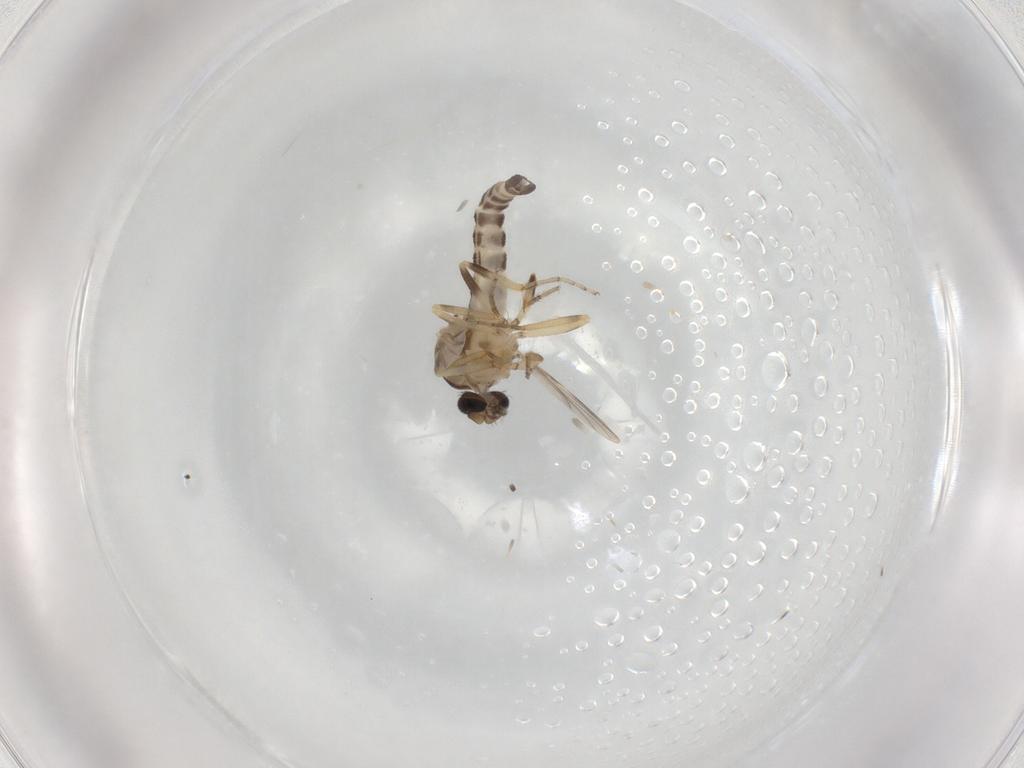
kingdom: Animalia
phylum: Arthropoda
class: Insecta
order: Diptera
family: Ceratopogonidae
